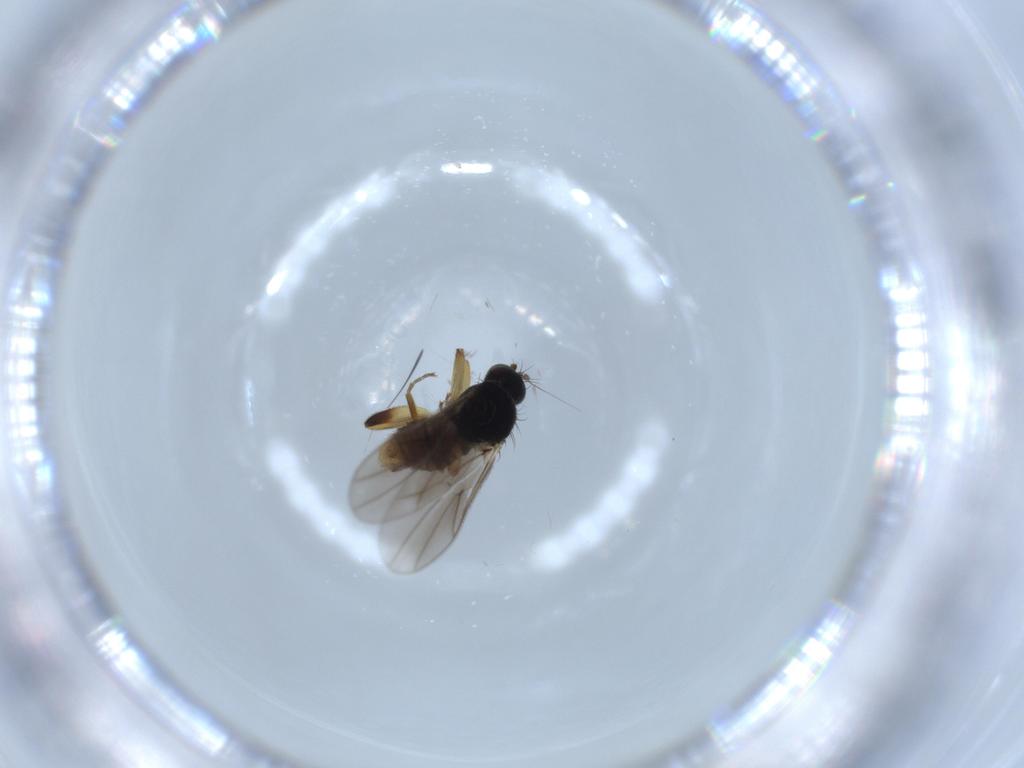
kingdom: Animalia
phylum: Arthropoda
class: Insecta
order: Diptera
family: Hybotidae
